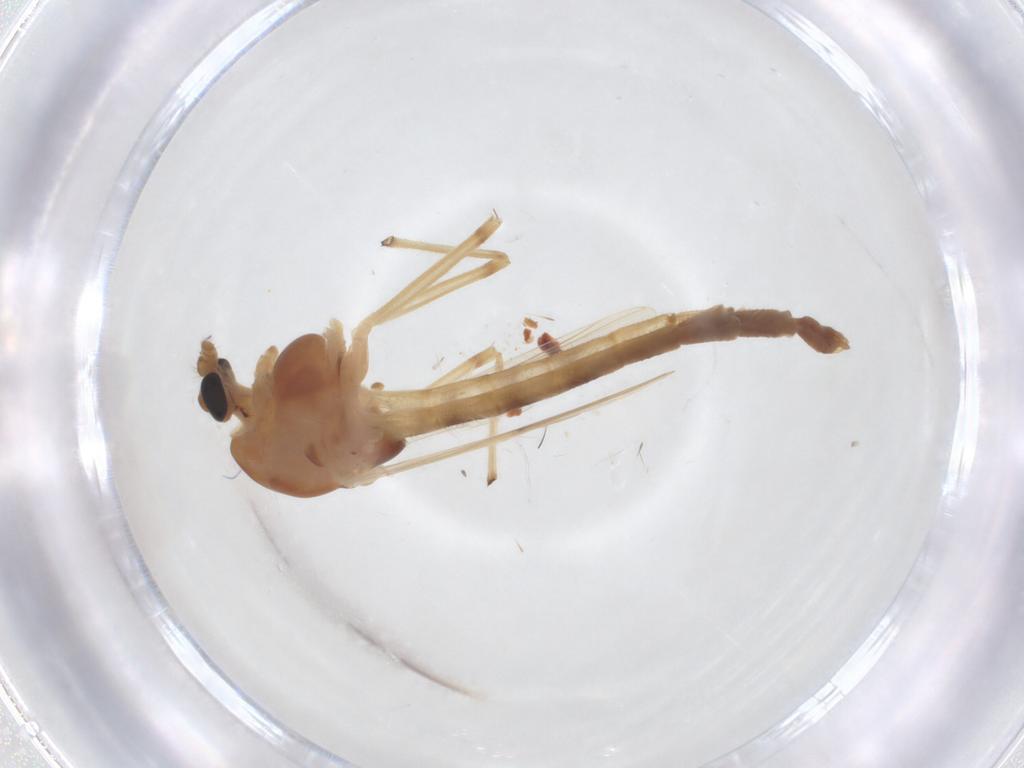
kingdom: Animalia
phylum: Arthropoda
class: Insecta
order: Diptera
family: Chironomidae
